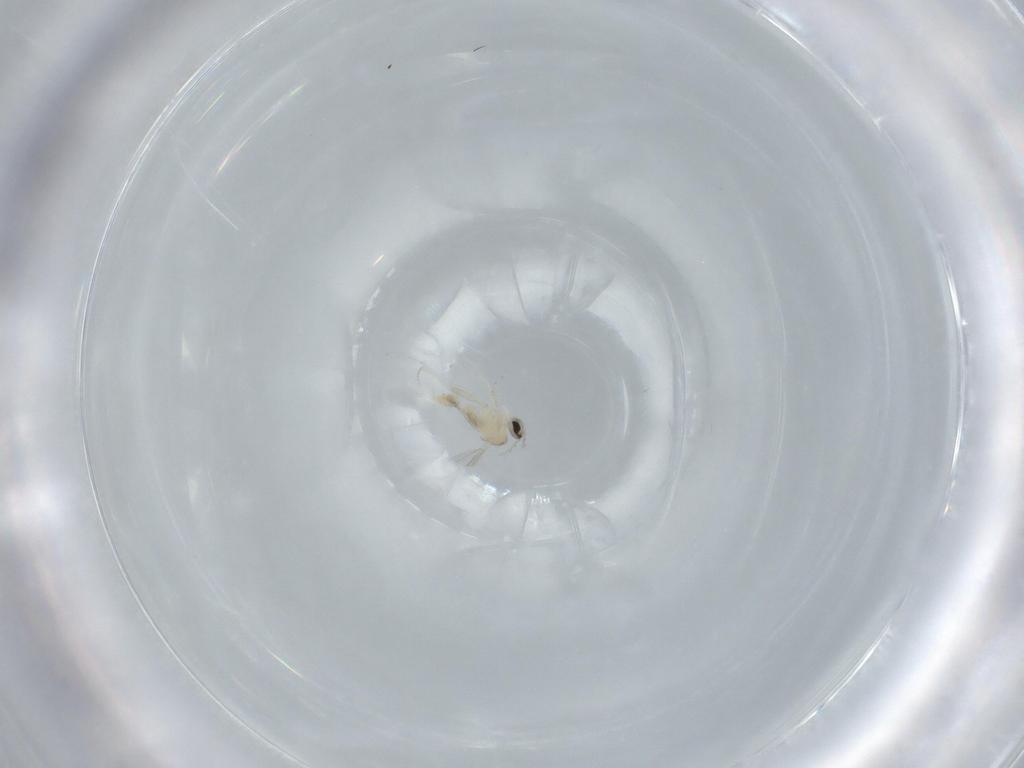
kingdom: Animalia
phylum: Arthropoda
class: Insecta
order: Diptera
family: Cecidomyiidae
